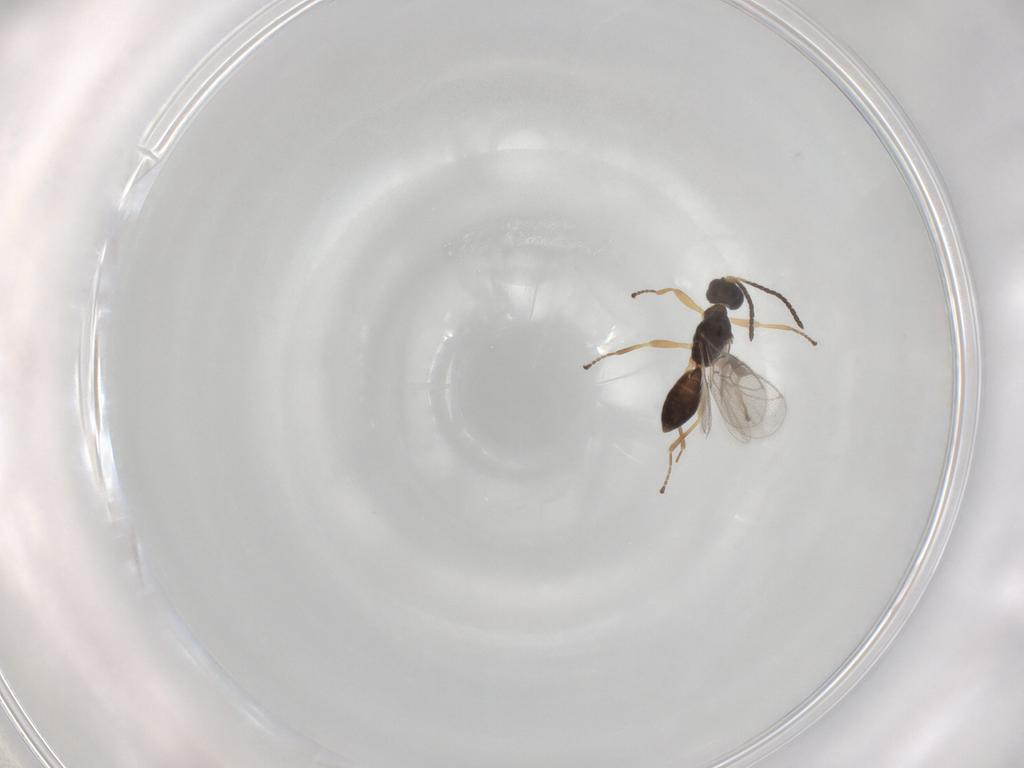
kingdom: Animalia
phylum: Arthropoda
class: Insecta
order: Hymenoptera
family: Braconidae
